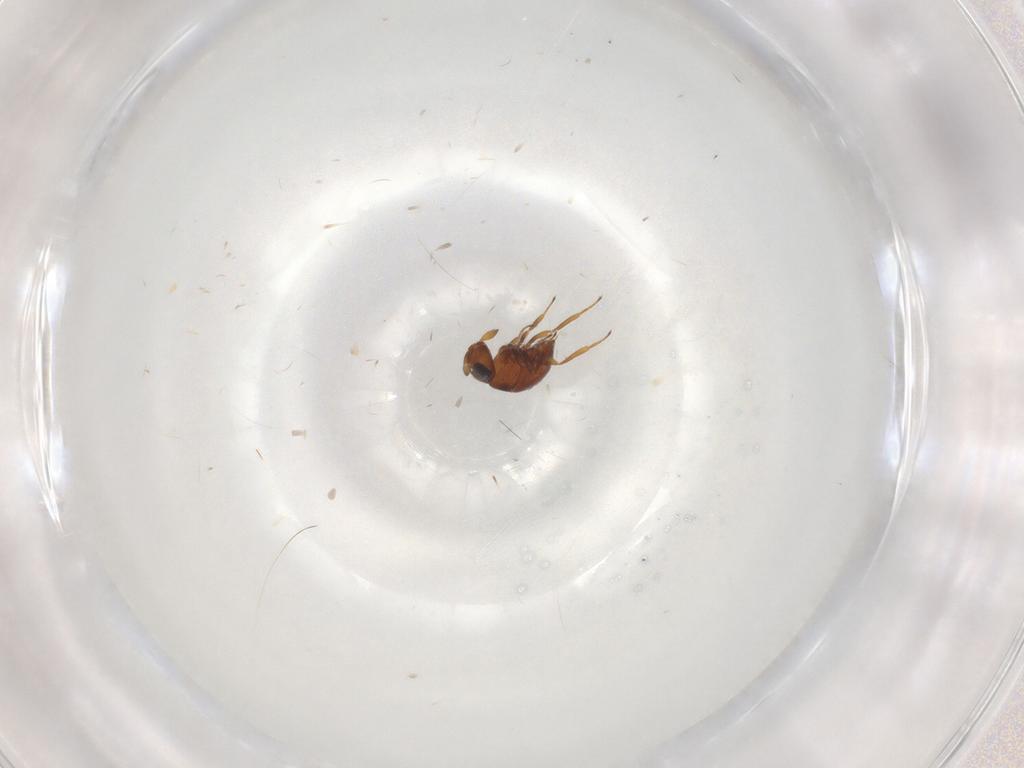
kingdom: Animalia
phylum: Arthropoda
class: Insecta
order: Hymenoptera
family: Scelionidae
